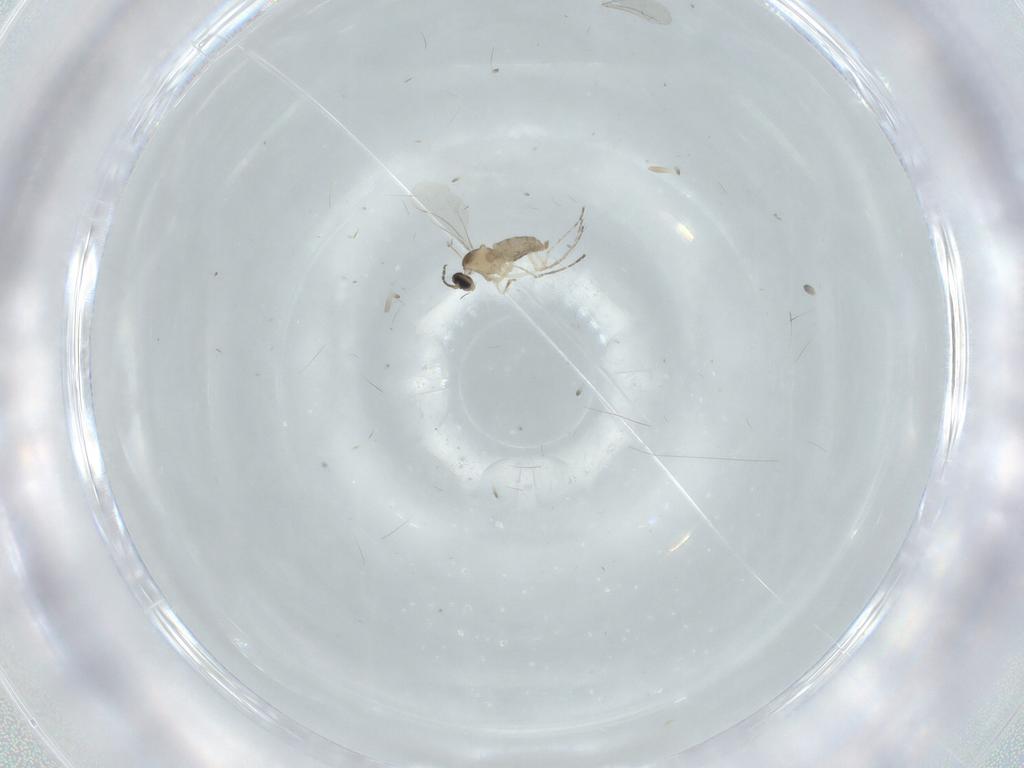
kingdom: Animalia
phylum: Arthropoda
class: Insecta
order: Diptera
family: Cecidomyiidae
